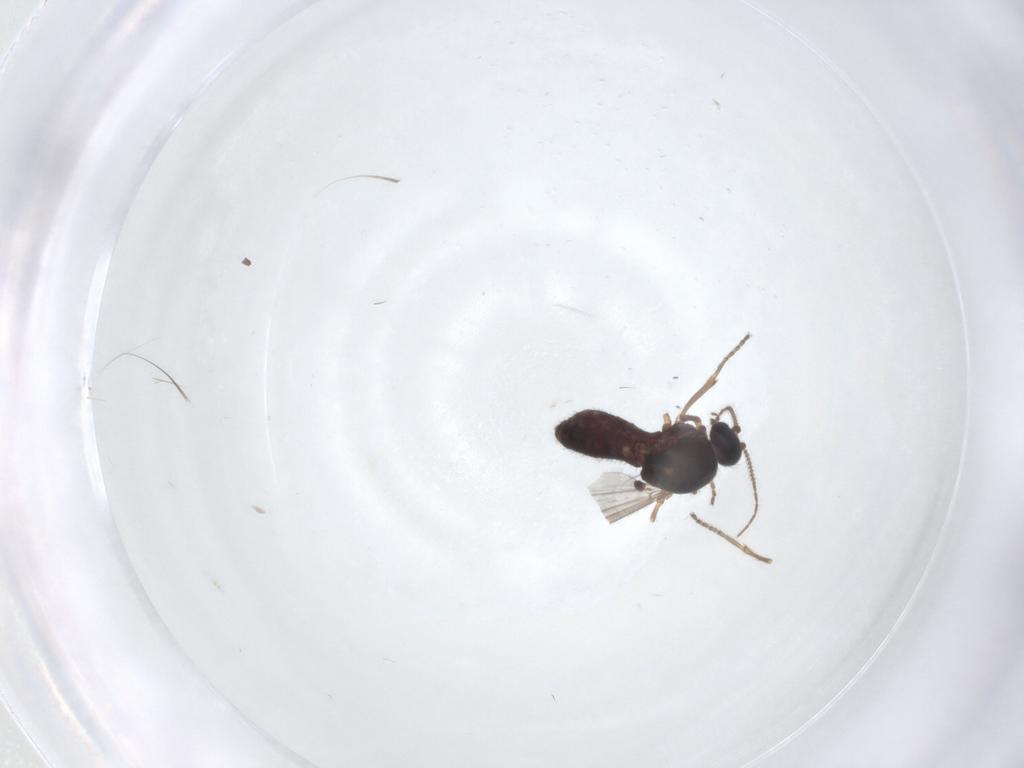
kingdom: Animalia
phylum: Arthropoda
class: Insecta
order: Diptera
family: Ceratopogonidae
